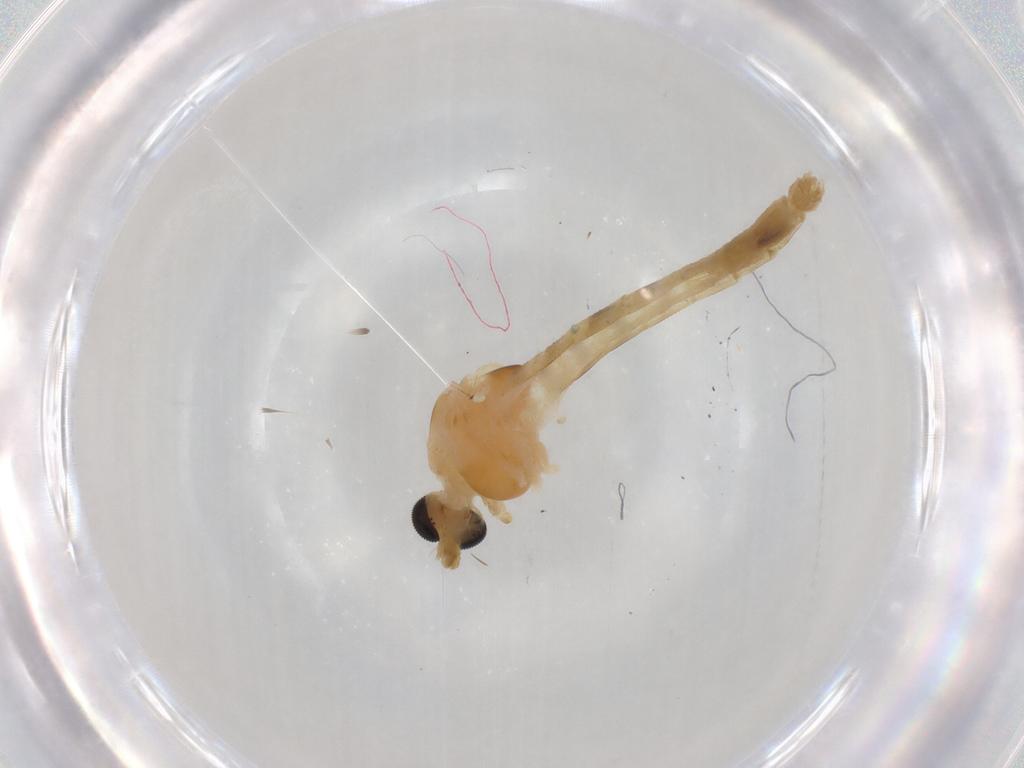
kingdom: Animalia
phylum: Arthropoda
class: Insecta
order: Diptera
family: Chironomidae
